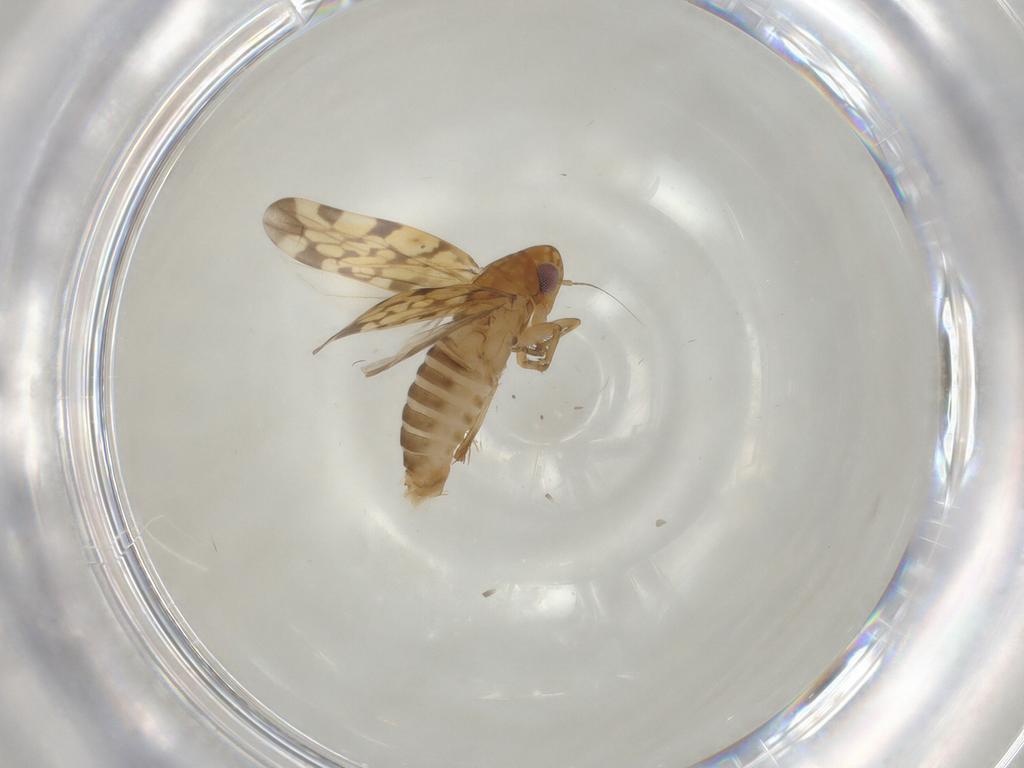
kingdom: Animalia
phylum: Arthropoda
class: Insecta
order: Hemiptera
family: Cicadellidae
